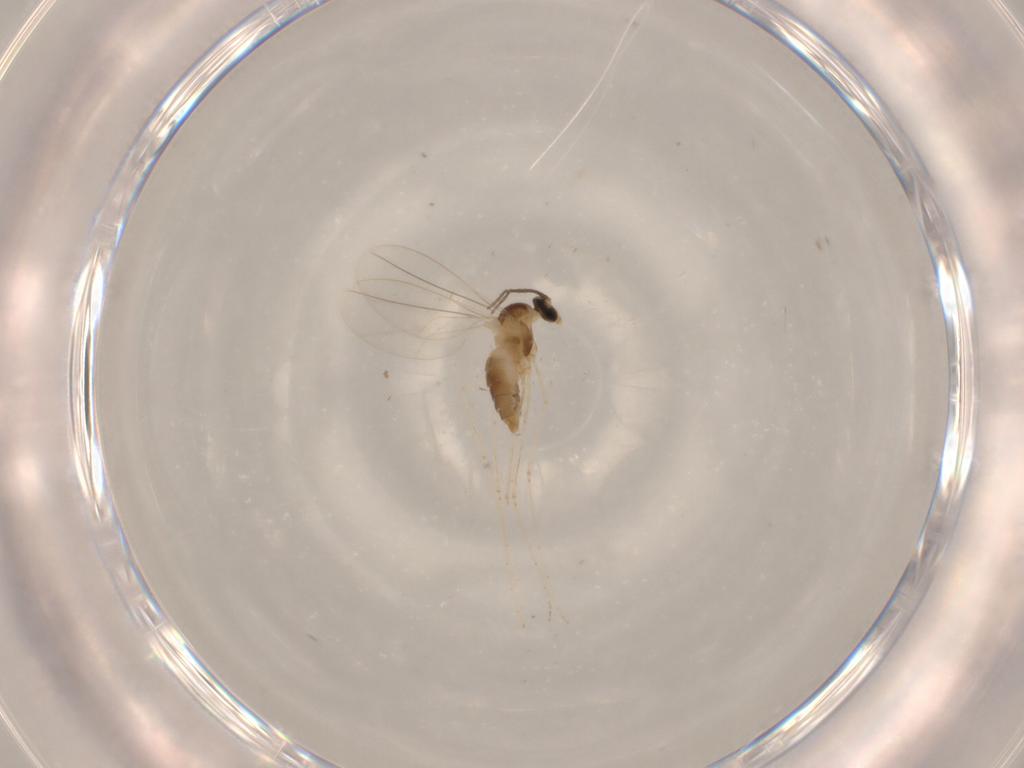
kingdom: Animalia
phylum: Arthropoda
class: Insecta
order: Diptera
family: Cecidomyiidae
